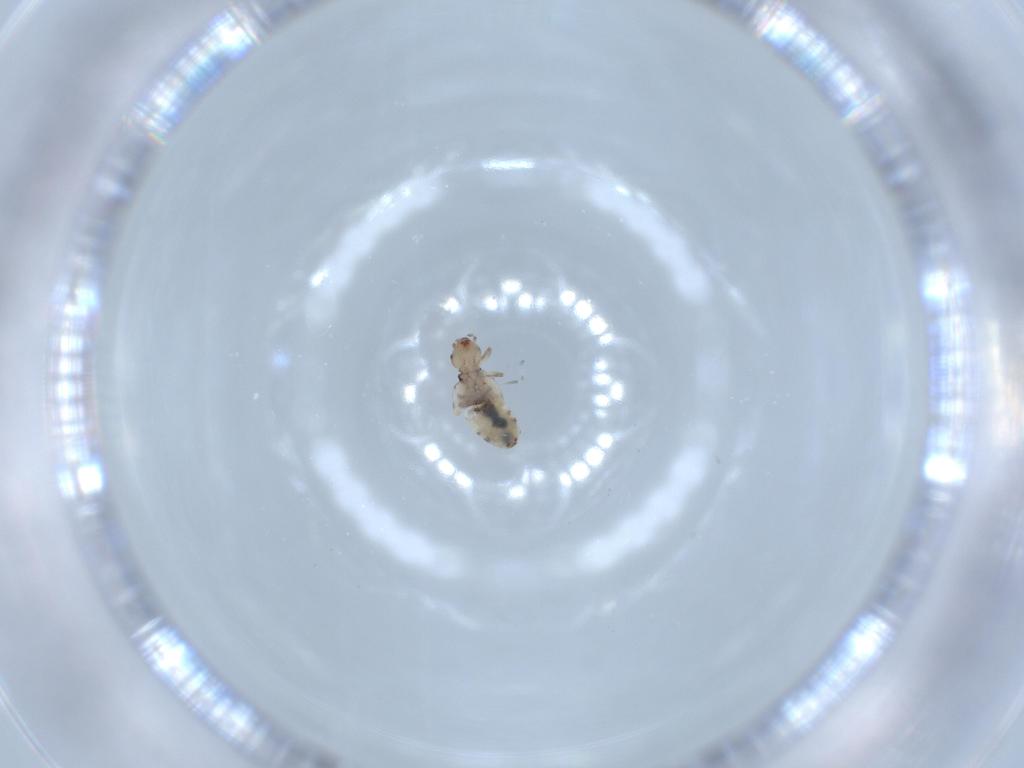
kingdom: Animalia
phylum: Arthropoda
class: Insecta
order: Psocodea
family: Liposcelididae
